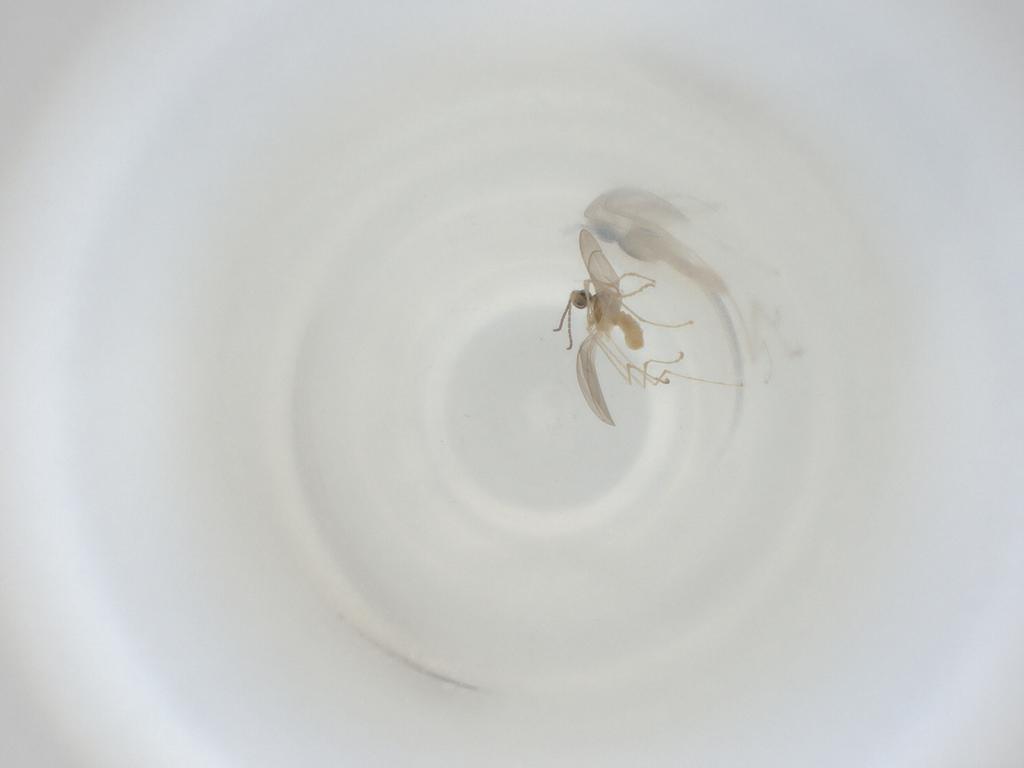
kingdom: Animalia
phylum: Arthropoda
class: Insecta
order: Diptera
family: Cecidomyiidae
